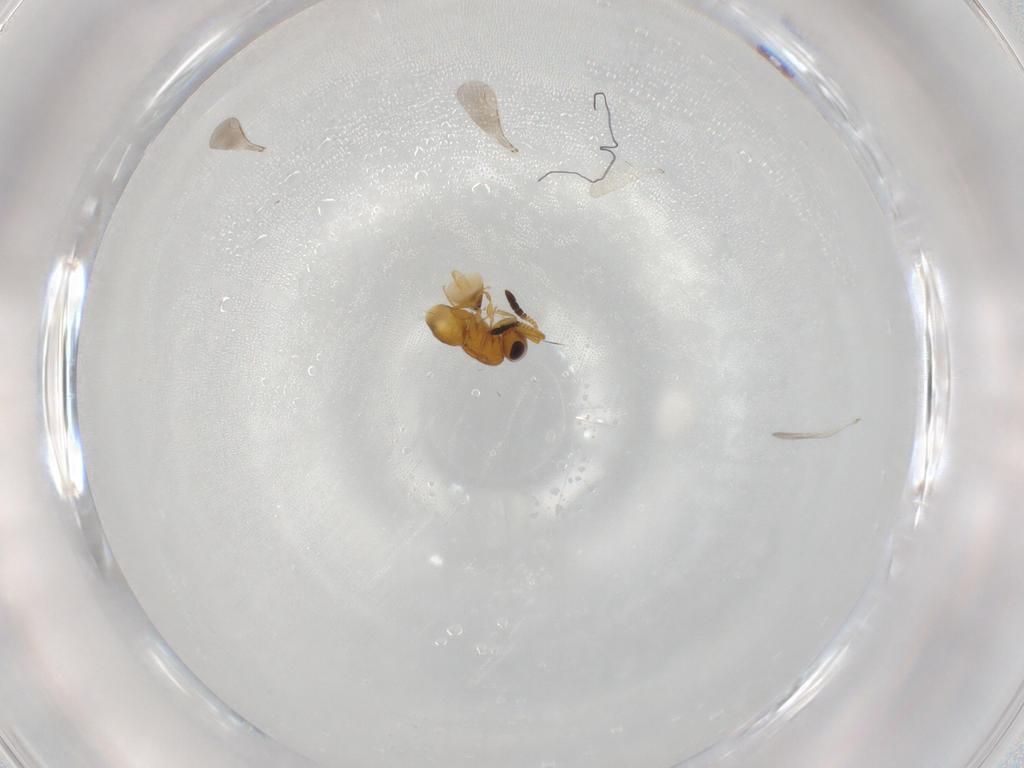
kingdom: Animalia
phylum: Arthropoda
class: Insecta
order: Hymenoptera
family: Ceraphronidae
